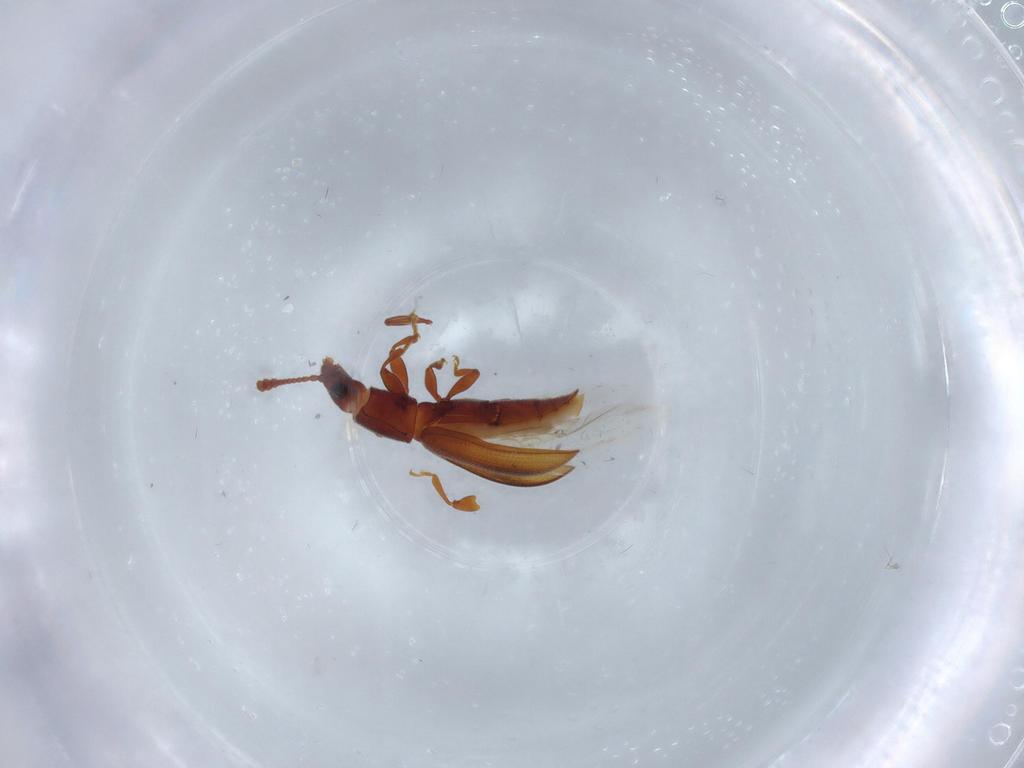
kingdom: Animalia
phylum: Arthropoda
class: Insecta
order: Coleoptera
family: Silvanidae
